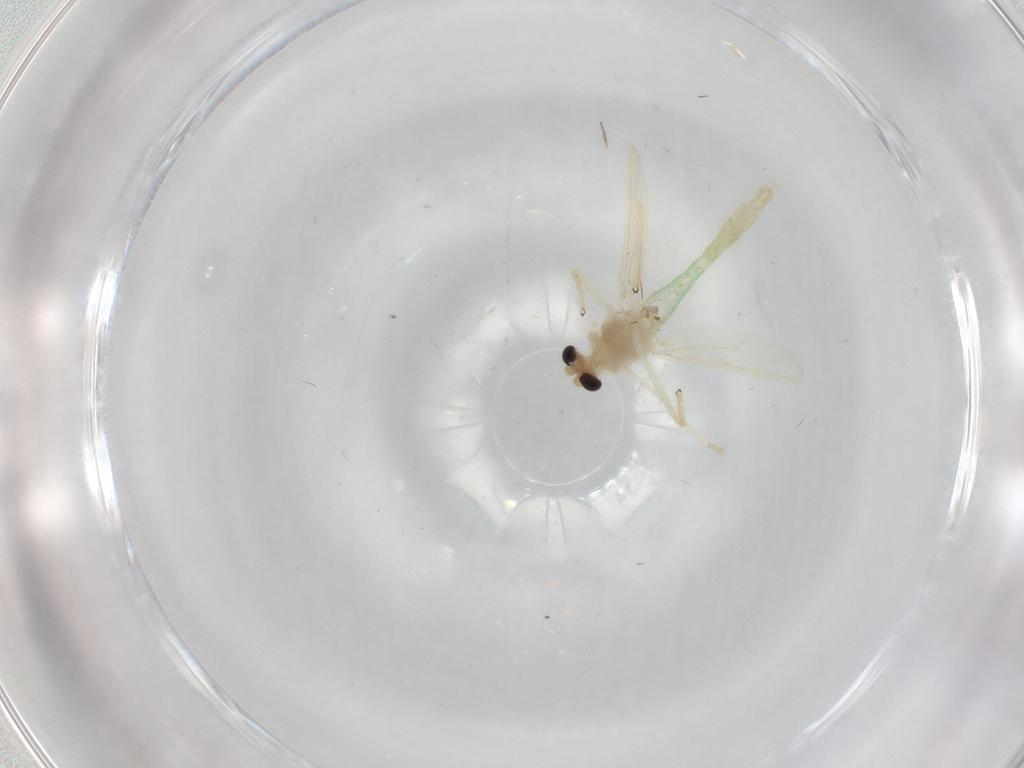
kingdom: Animalia
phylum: Arthropoda
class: Insecta
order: Diptera
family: Chironomidae
